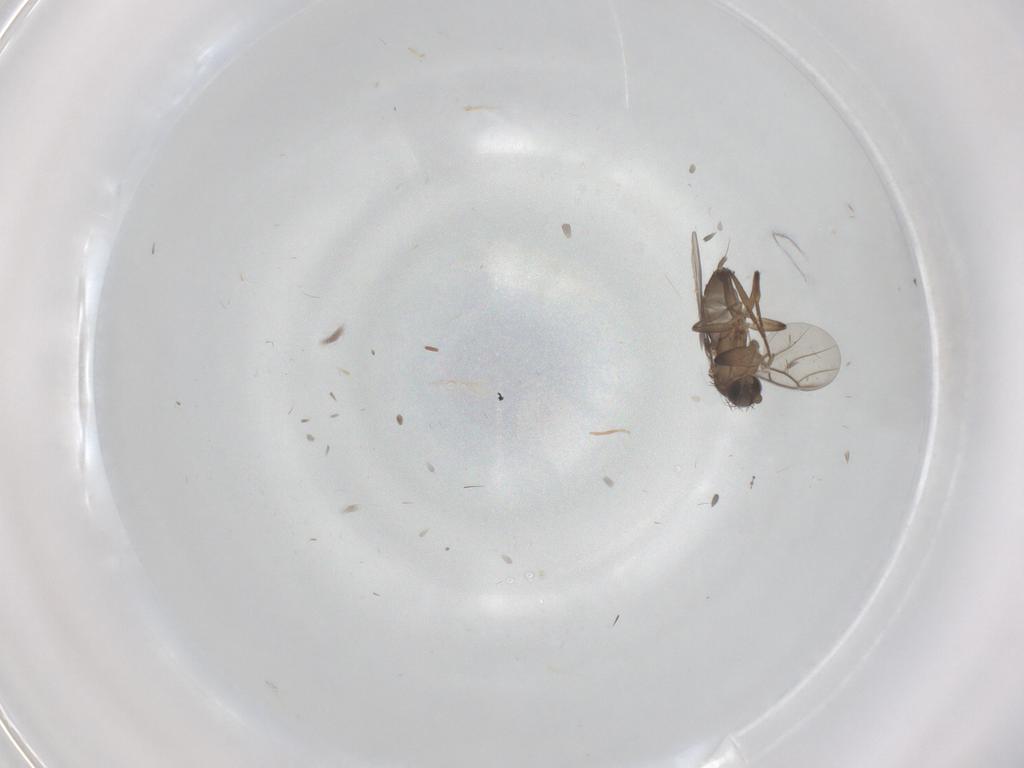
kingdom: Animalia
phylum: Arthropoda
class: Insecta
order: Diptera
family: Cecidomyiidae
